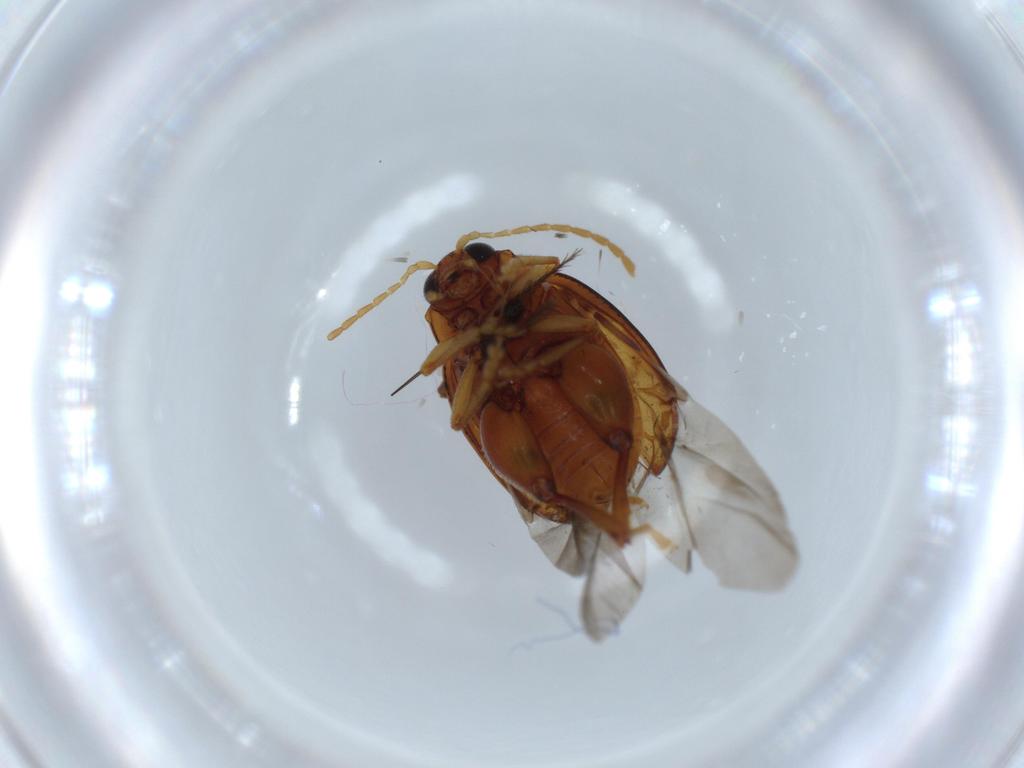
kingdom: Animalia
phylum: Arthropoda
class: Insecta
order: Coleoptera
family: Chrysomelidae
